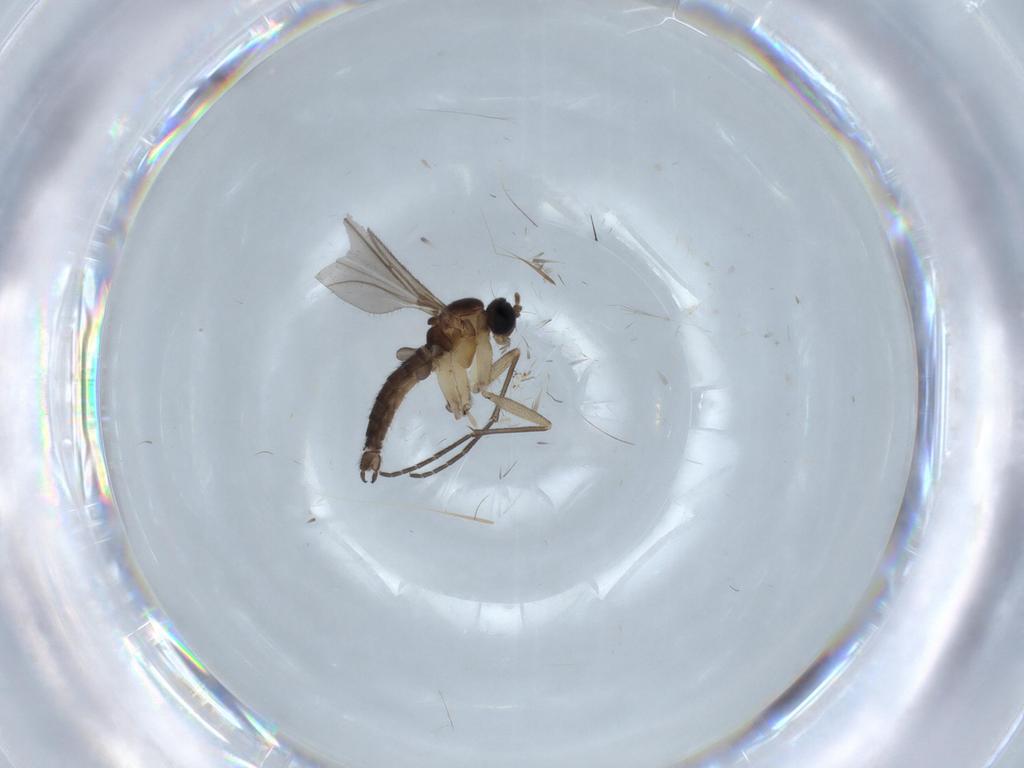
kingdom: Animalia
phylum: Arthropoda
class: Insecta
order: Diptera
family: Sciaridae
